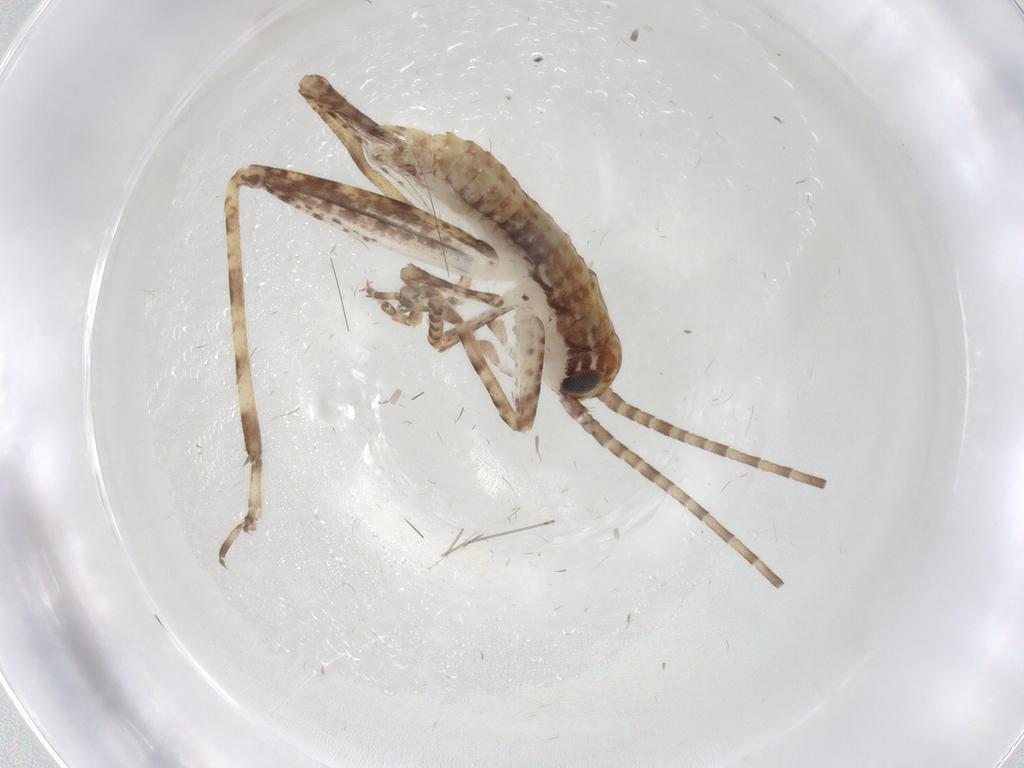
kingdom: Animalia
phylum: Arthropoda
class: Insecta
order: Orthoptera
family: Gryllidae
